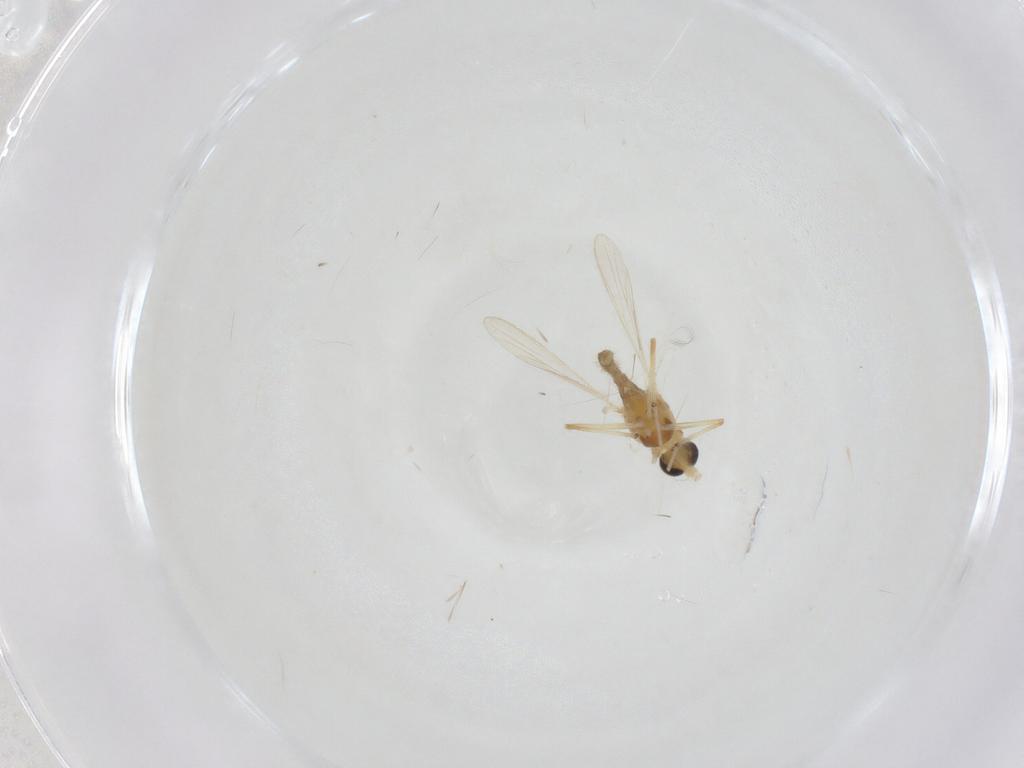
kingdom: Animalia
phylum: Arthropoda
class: Insecta
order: Diptera
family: Chironomidae
